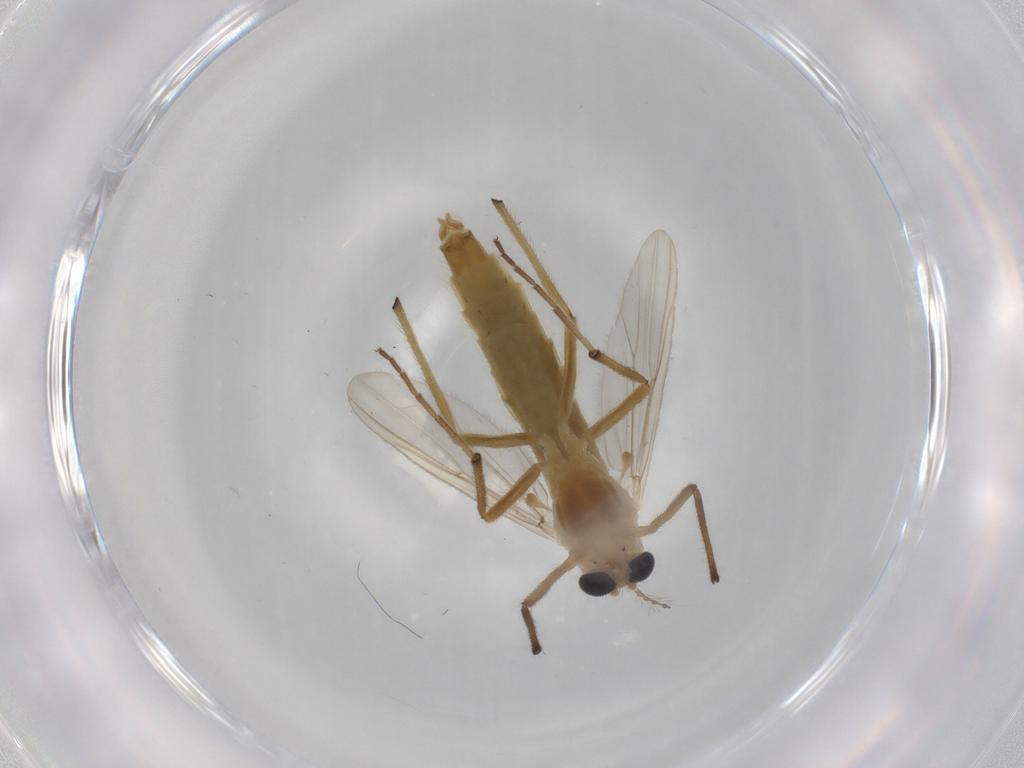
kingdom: Animalia
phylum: Arthropoda
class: Insecta
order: Diptera
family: Chironomidae
